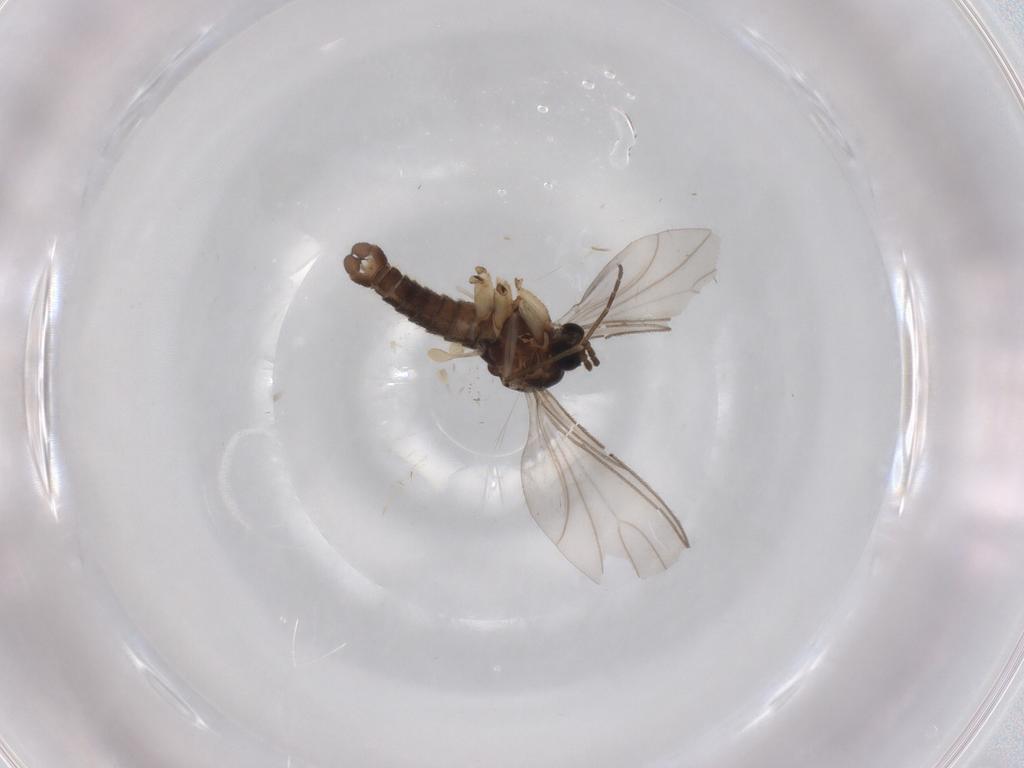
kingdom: Animalia
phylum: Arthropoda
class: Insecta
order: Diptera
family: Sciaridae
